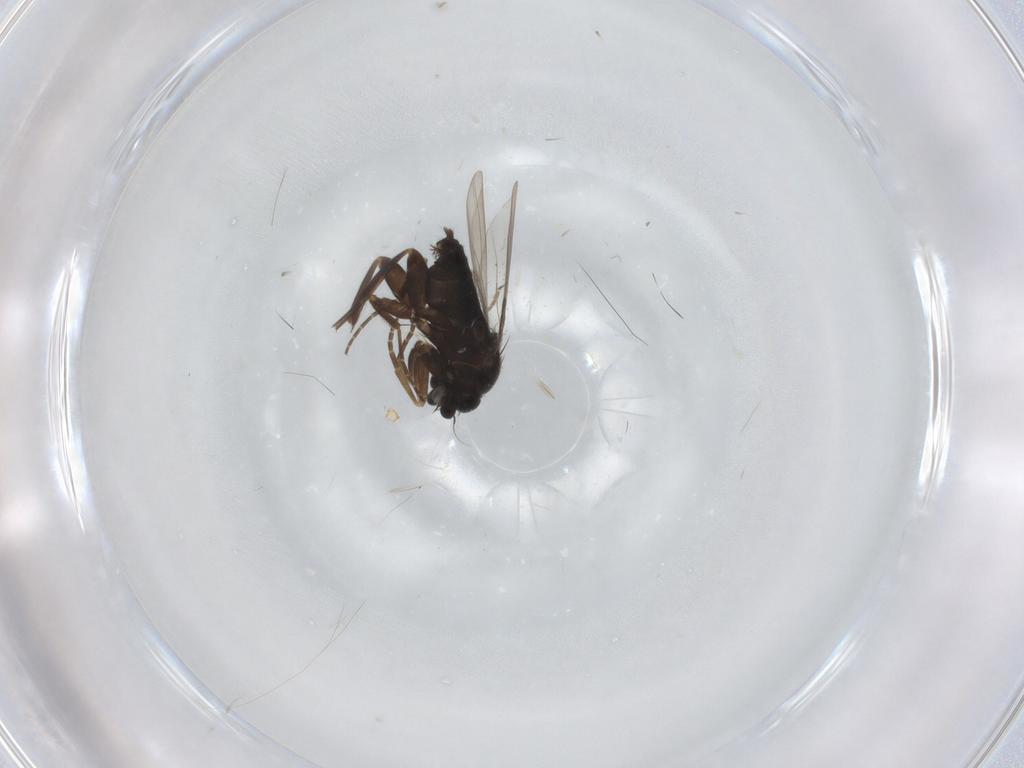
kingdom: Animalia
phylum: Arthropoda
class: Insecta
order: Diptera
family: Phoridae
